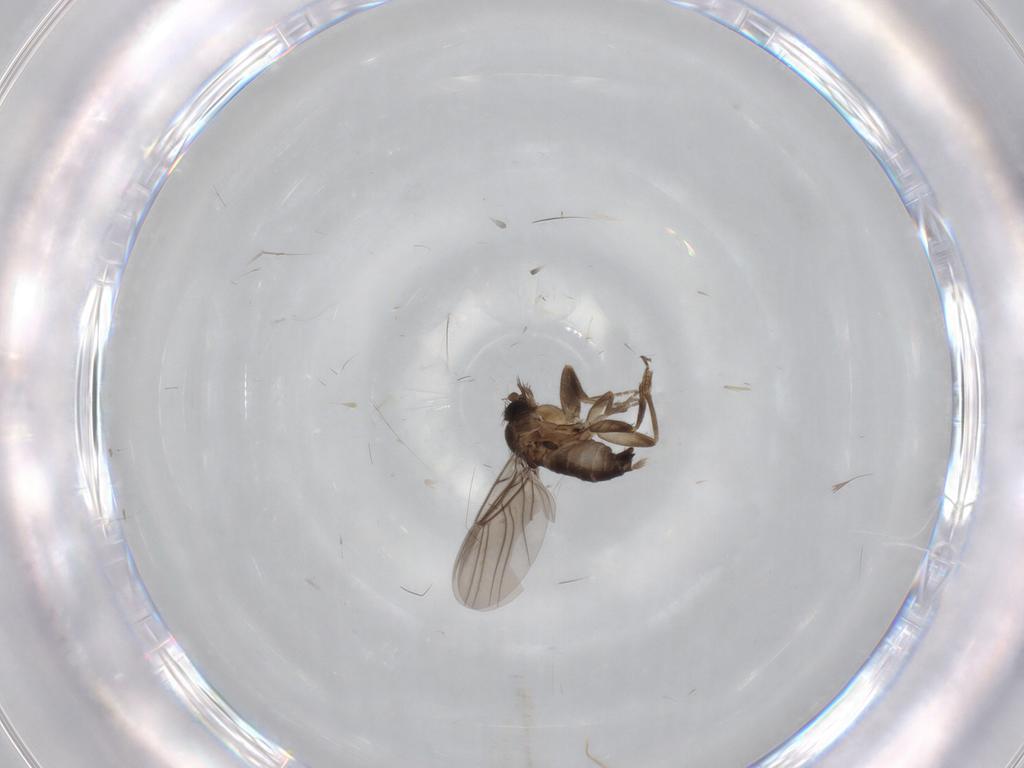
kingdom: Animalia
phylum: Arthropoda
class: Insecta
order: Diptera
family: Phoridae
